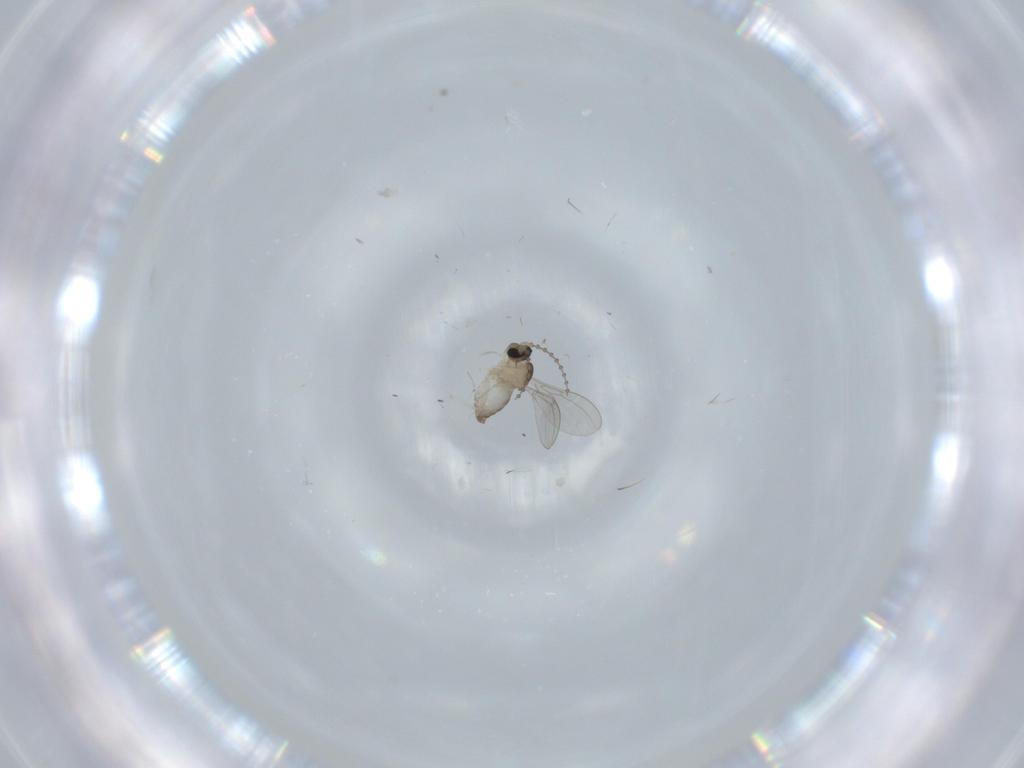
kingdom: Animalia
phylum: Arthropoda
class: Insecta
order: Diptera
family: Cecidomyiidae
